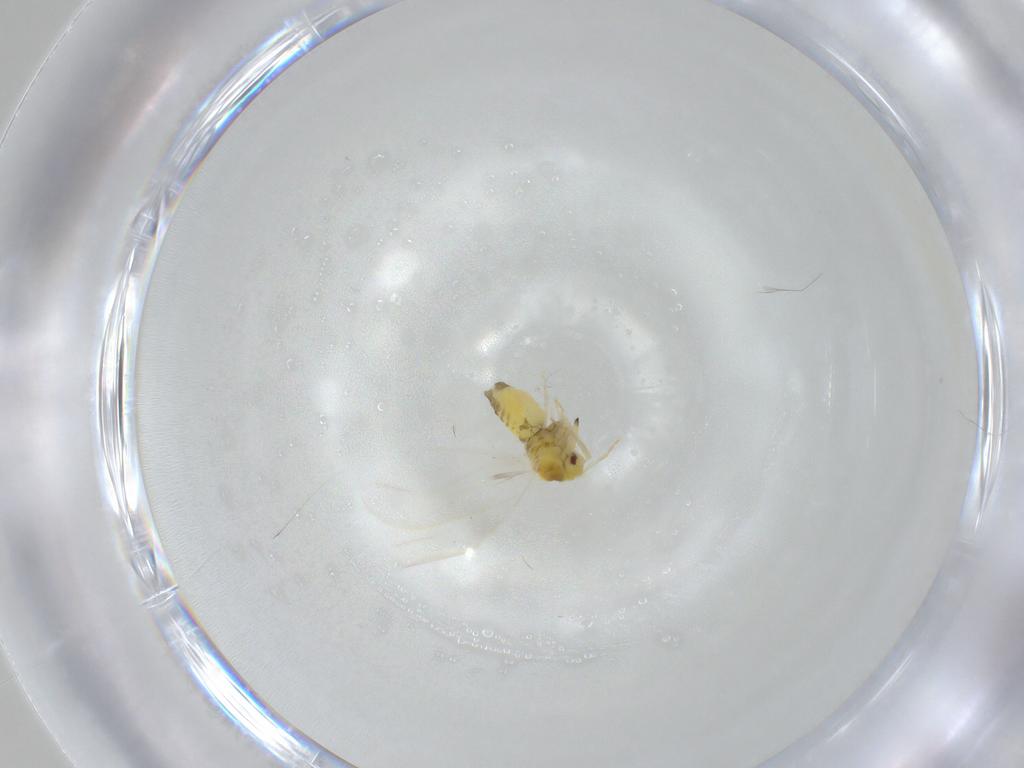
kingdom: Animalia
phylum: Arthropoda
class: Insecta
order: Hemiptera
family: Aleyrodidae
